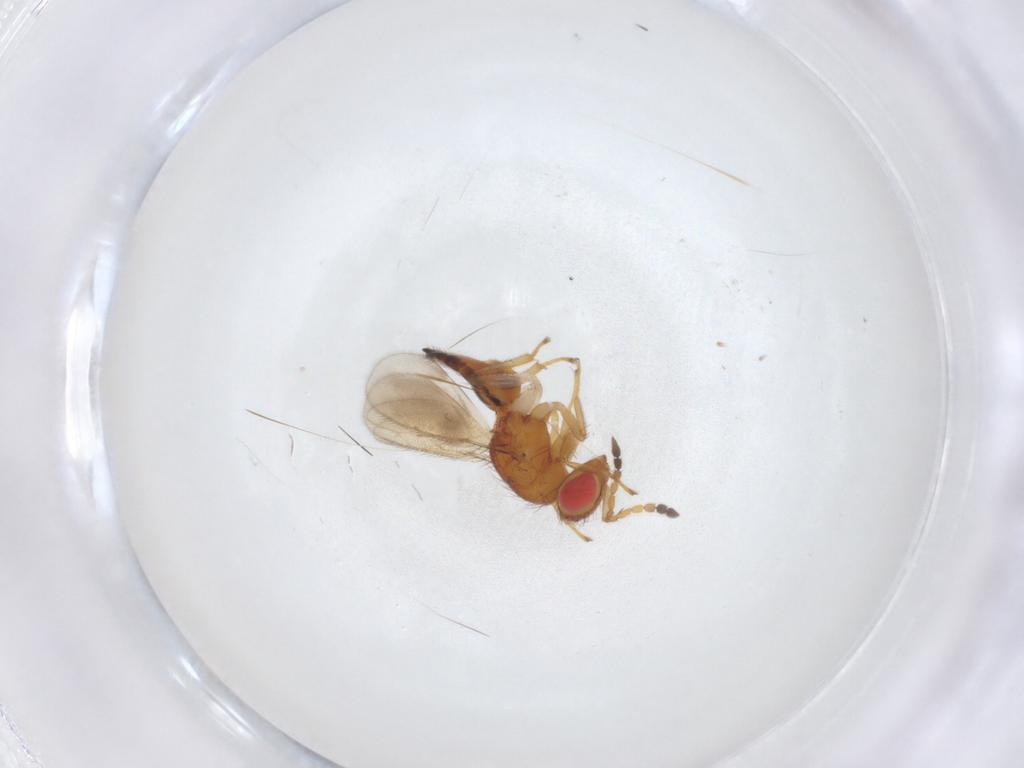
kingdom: Animalia
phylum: Arthropoda
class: Insecta
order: Hymenoptera
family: Eulophidae
